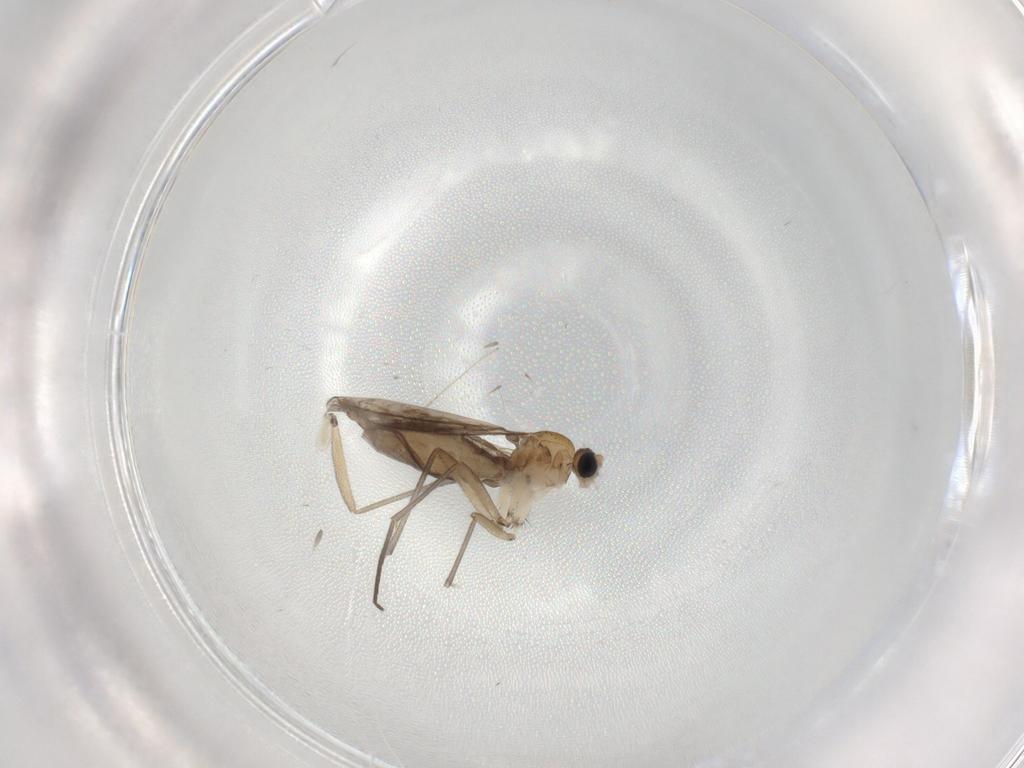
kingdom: Animalia
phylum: Arthropoda
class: Insecta
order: Diptera
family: Sciaridae
